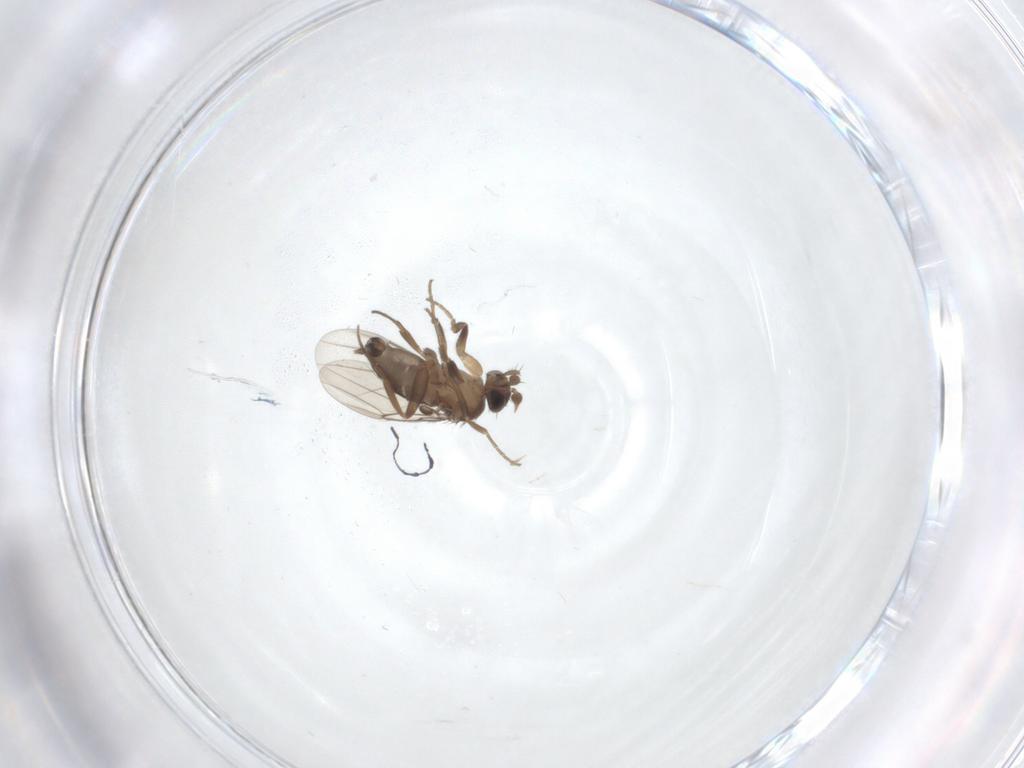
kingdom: Animalia
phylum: Arthropoda
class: Insecta
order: Diptera
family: Phoridae
